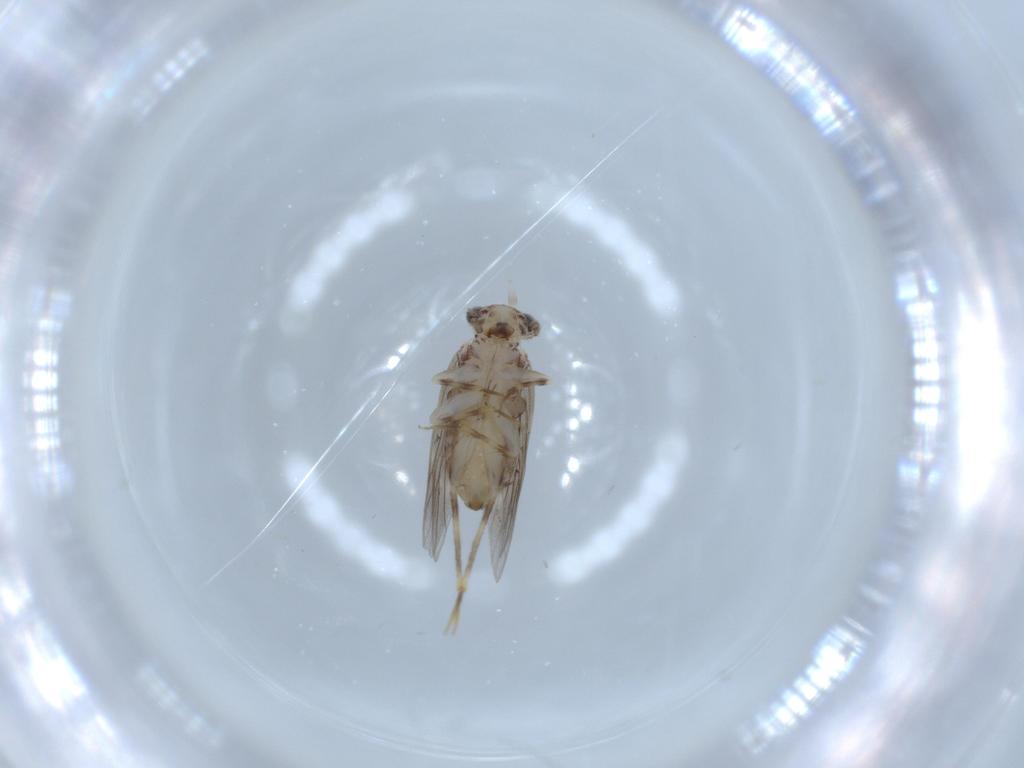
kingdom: Animalia
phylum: Arthropoda
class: Insecta
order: Psocodea
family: Lepidopsocidae
